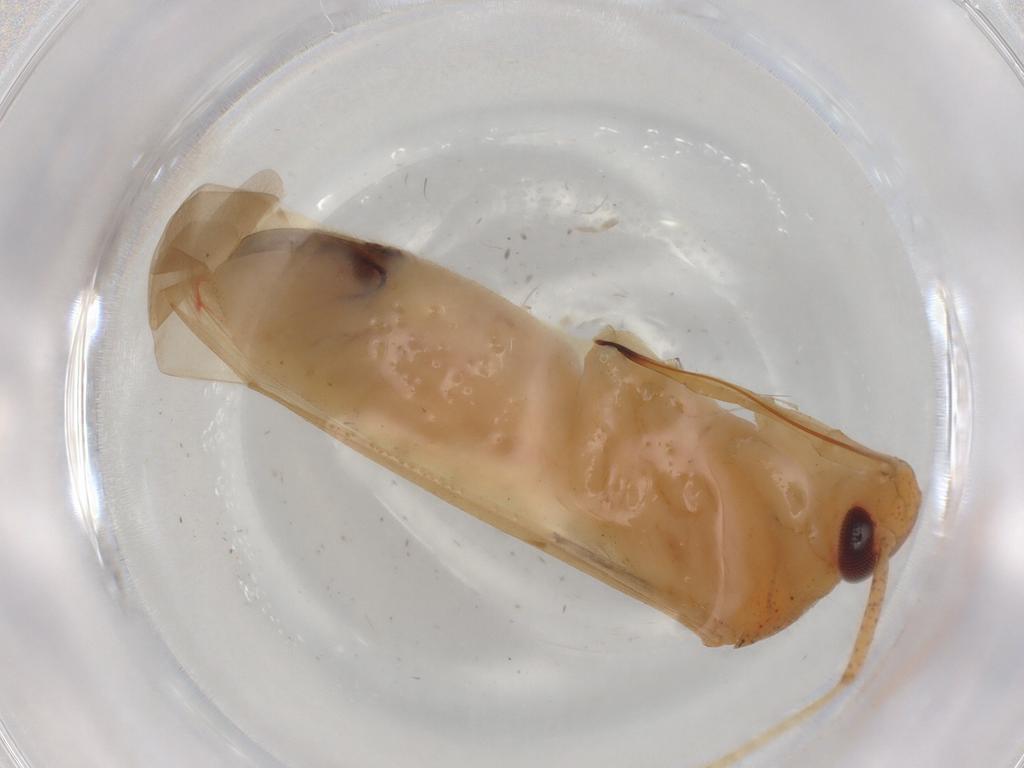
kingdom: Animalia
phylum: Arthropoda
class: Insecta
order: Hemiptera
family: Miridae
